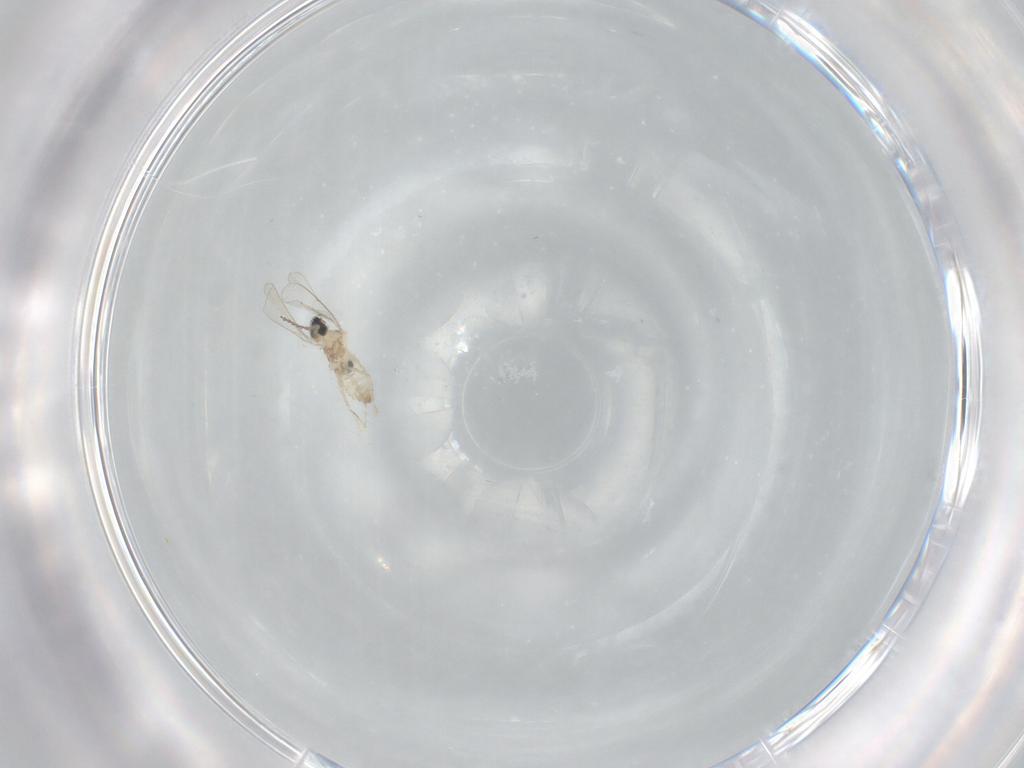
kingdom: Animalia
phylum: Arthropoda
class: Insecta
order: Diptera
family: Cecidomyiidae
